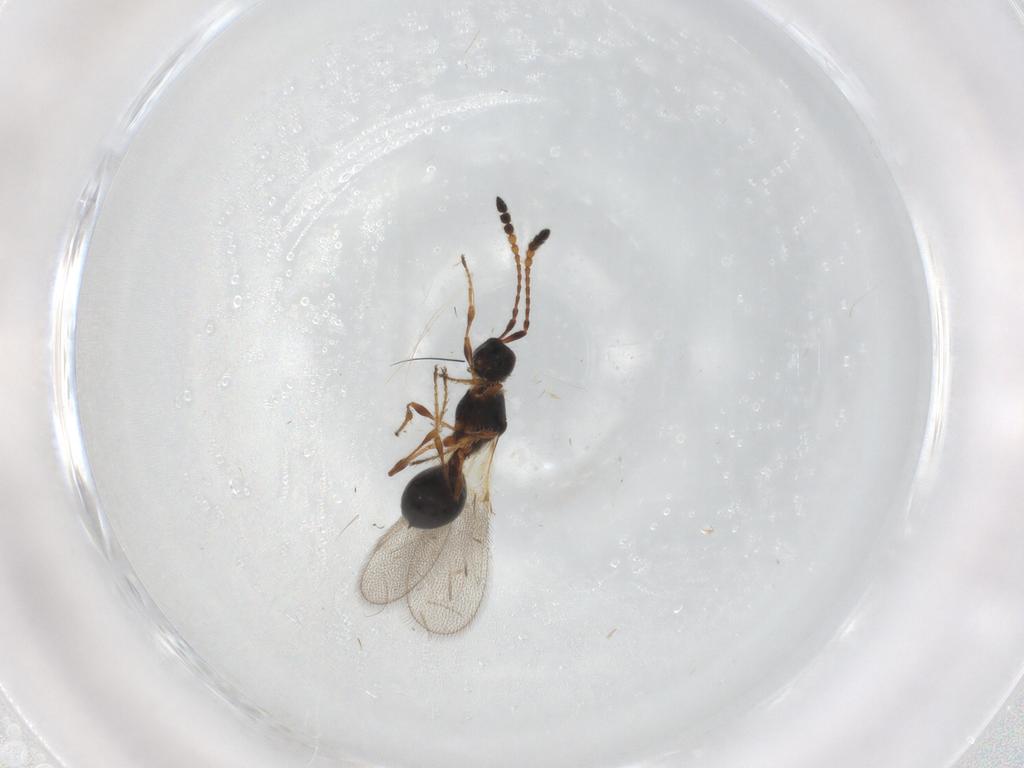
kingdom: Animalia
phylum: Arthropoda
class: Insecta
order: Hymenoptera
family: Diapriidae
